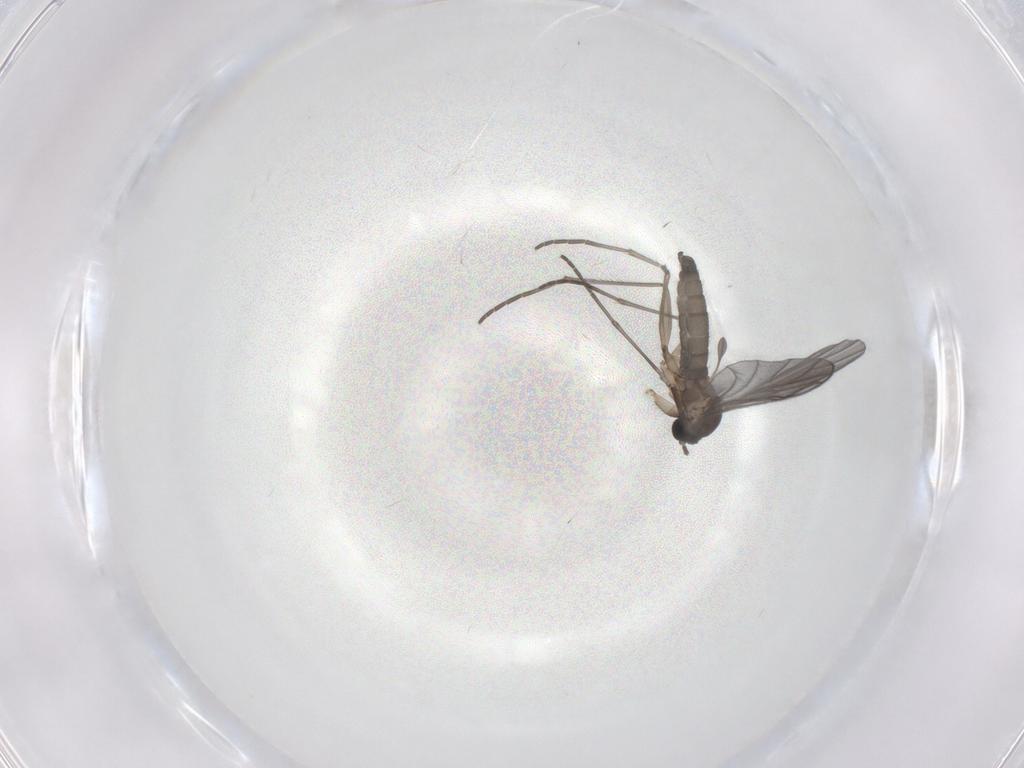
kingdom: Animalia
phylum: Arthropoda
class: Insecta
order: Diptera
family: Sciaridae
